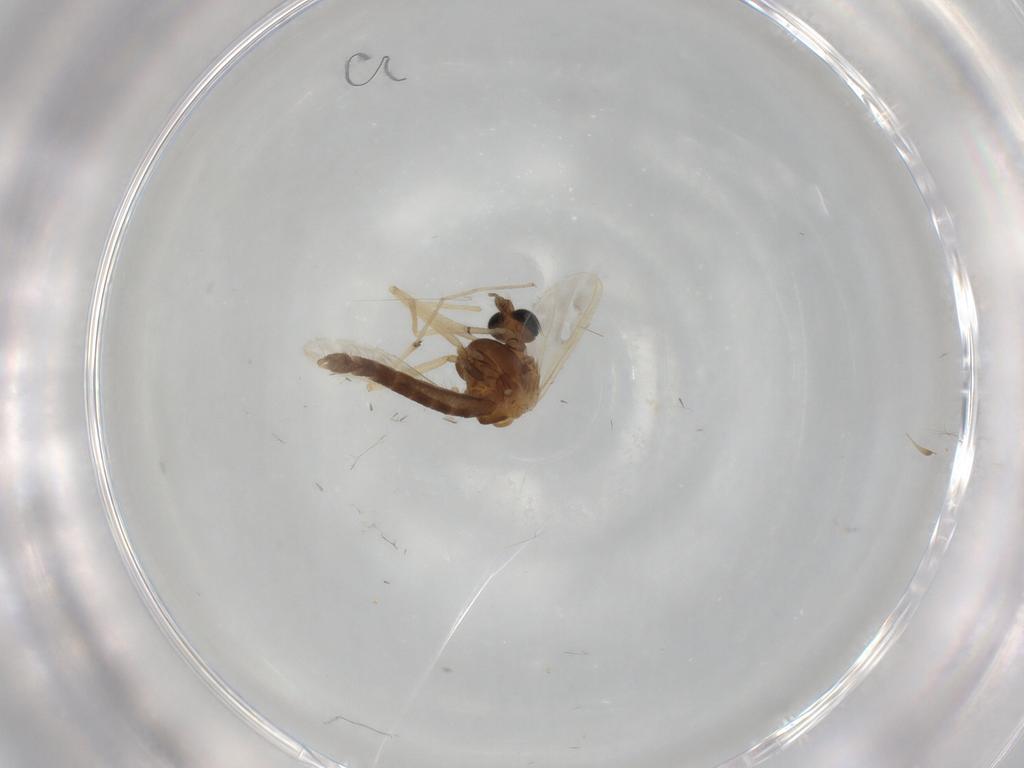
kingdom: Animalia
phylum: Arthropoda
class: Insecta
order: Diptera
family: Chironomidae
